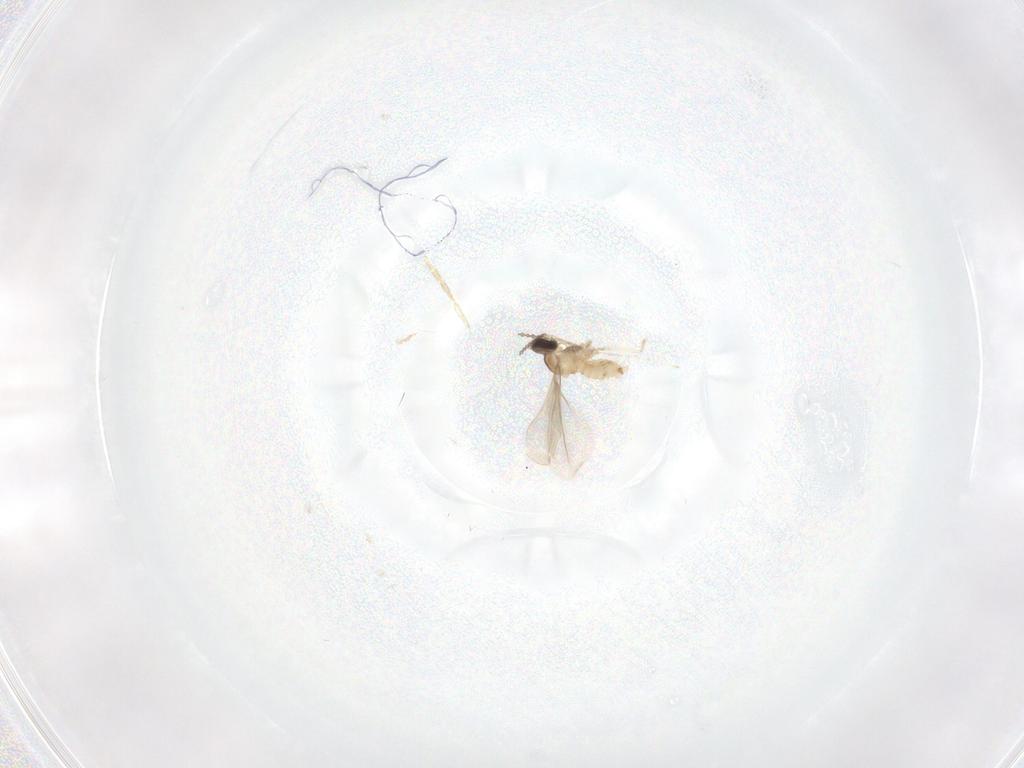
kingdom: Animalia
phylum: Arthropoda
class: Insecta
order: Diptera
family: Cecidomyiidae
